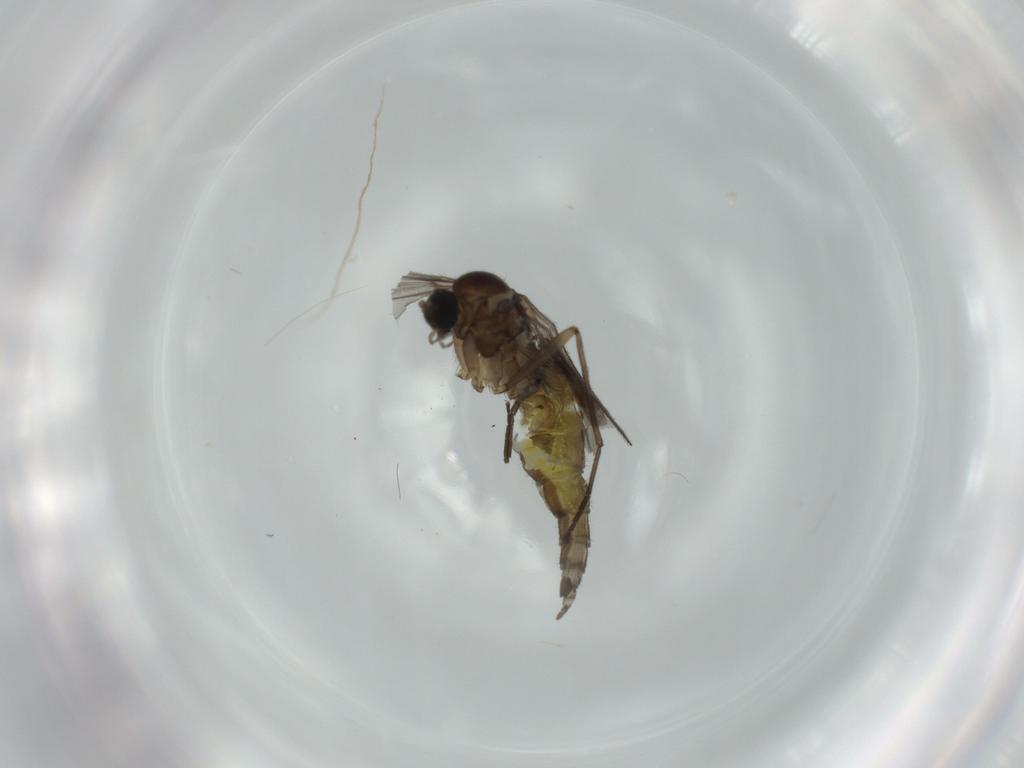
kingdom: Animalia
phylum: Arthropoda
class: Insecta
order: Diptera
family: Sciaridae
